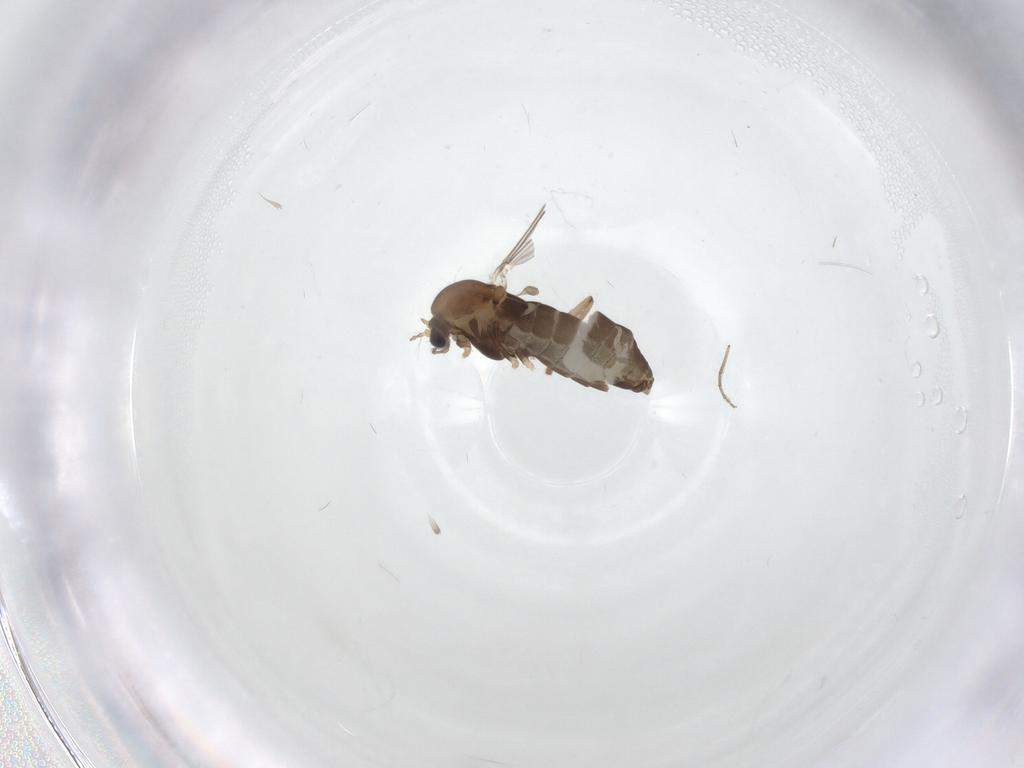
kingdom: Animalia
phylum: Arthropoda
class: Insecta
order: Diptera
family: Chironomidae
